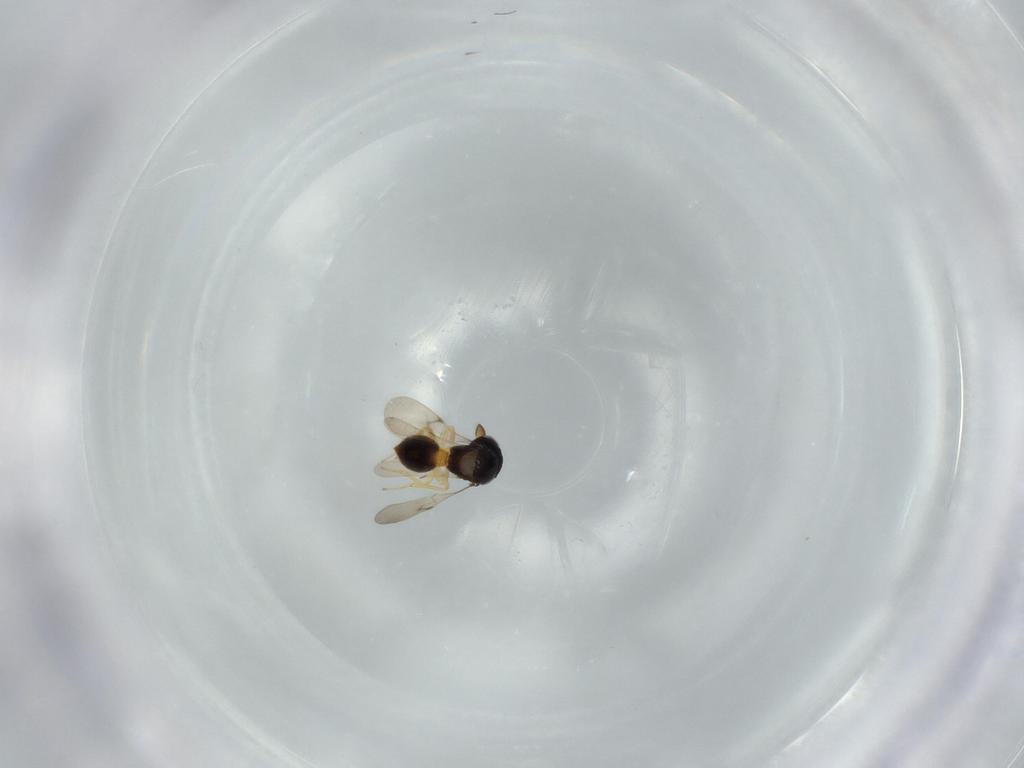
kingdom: Animalia
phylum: Arthropoda
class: Insecta
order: Hymenoptera
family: Scelionidae
